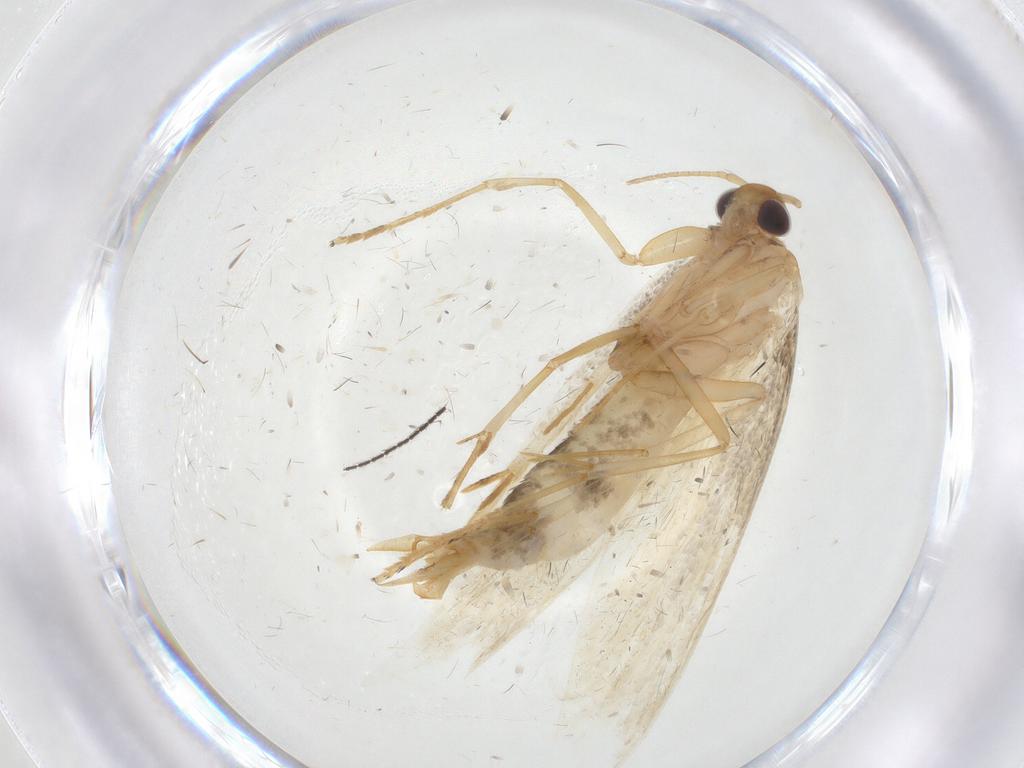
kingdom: Animalia
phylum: Arthropoda
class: Insecta
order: Lepidoptera
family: Oecophoridae
